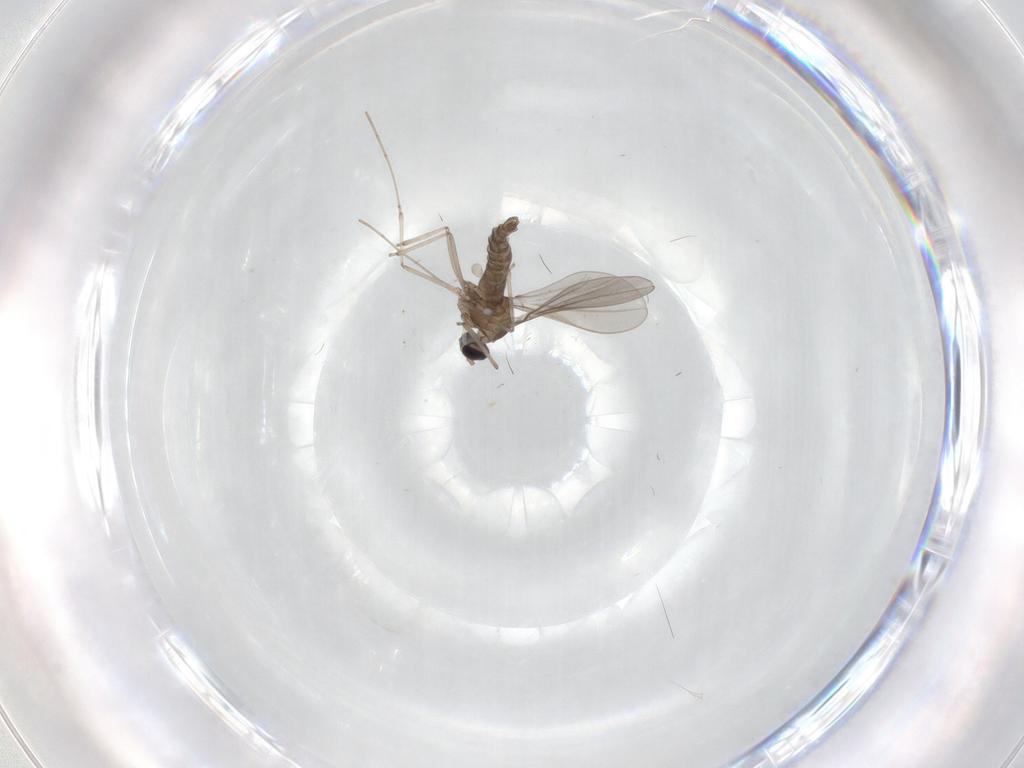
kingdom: Animalia
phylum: Arthropoda
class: Insecta
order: Diptera
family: Cecidomyiidae
